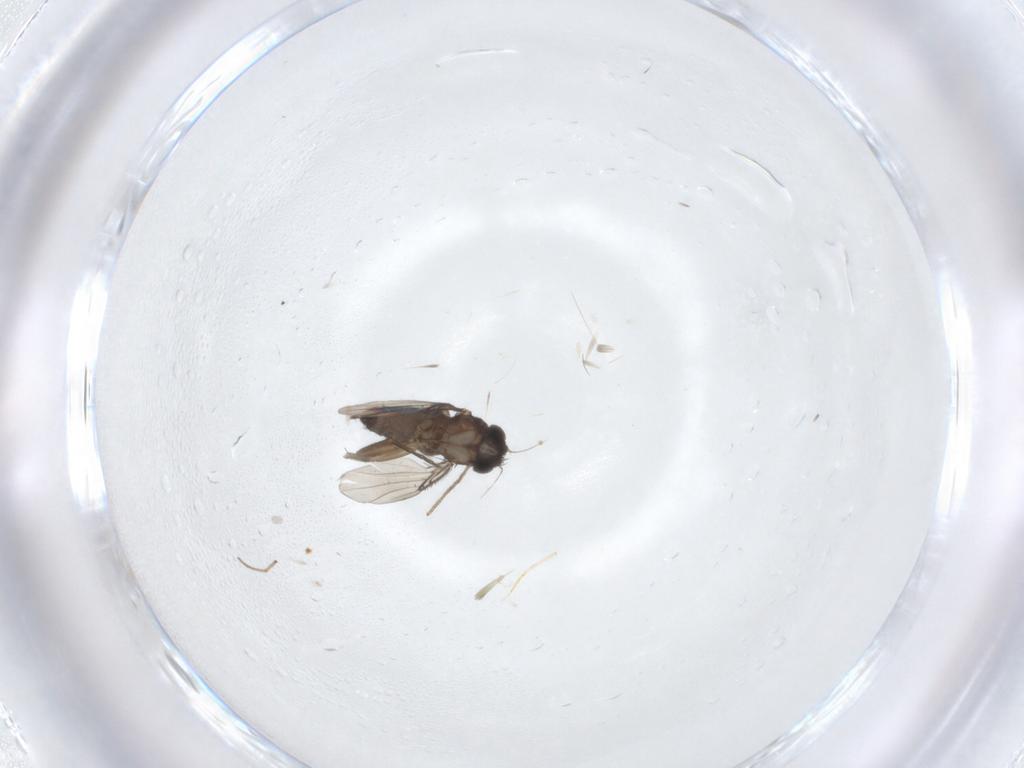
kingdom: Animalia
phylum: Arthropoda
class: Insecta
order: Diptera
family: Phoridae
